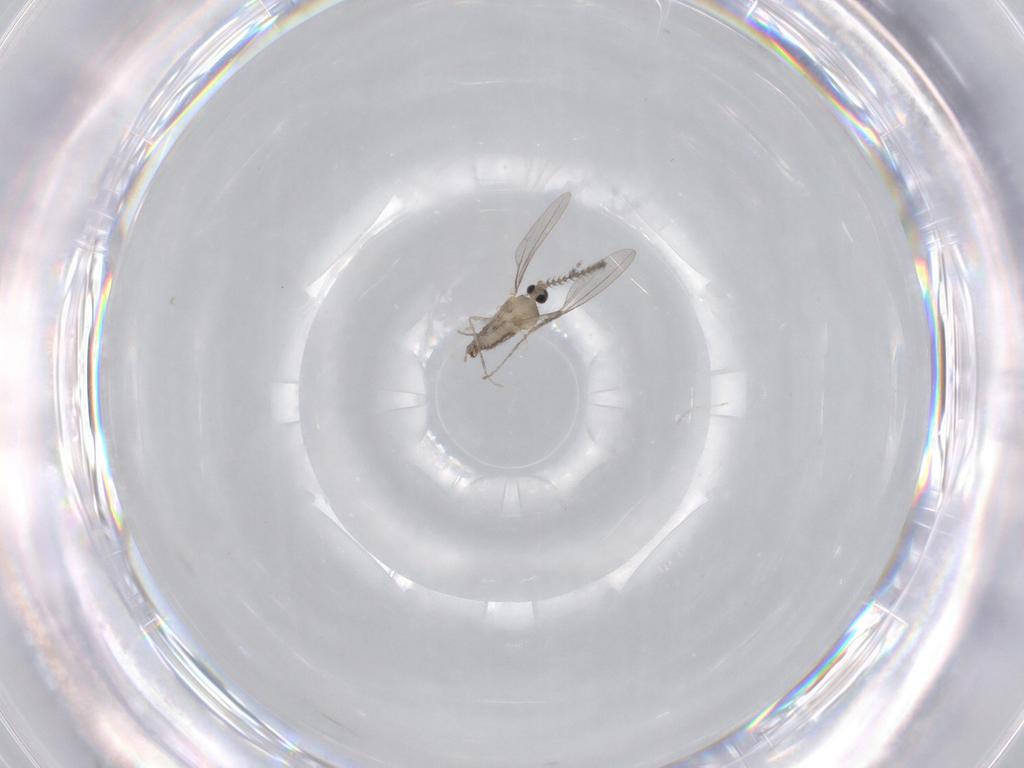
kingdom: Animalia
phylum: Arthropoda
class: Insecta
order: Diptera
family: Cecidomyiidae
